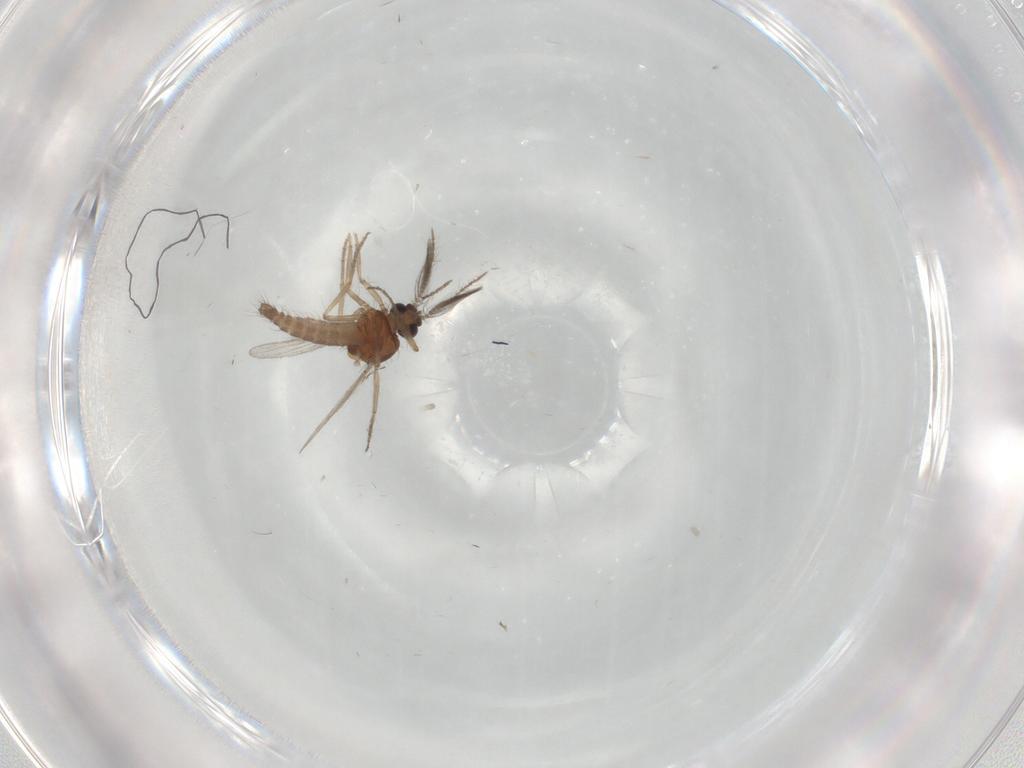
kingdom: Animalia
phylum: Arthropoda
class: Insecta
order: Diptera
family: Ceratopogonidae
